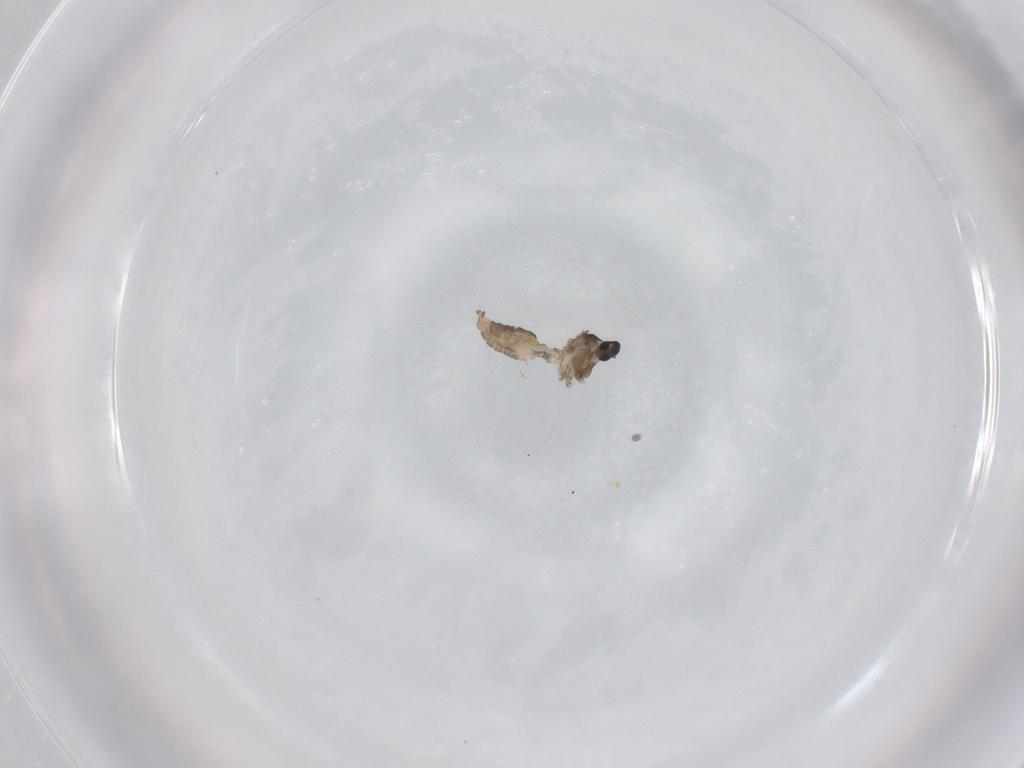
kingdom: Animalia
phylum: Arthropoda
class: Insecta
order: Diptera
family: Cecidomyiidae
